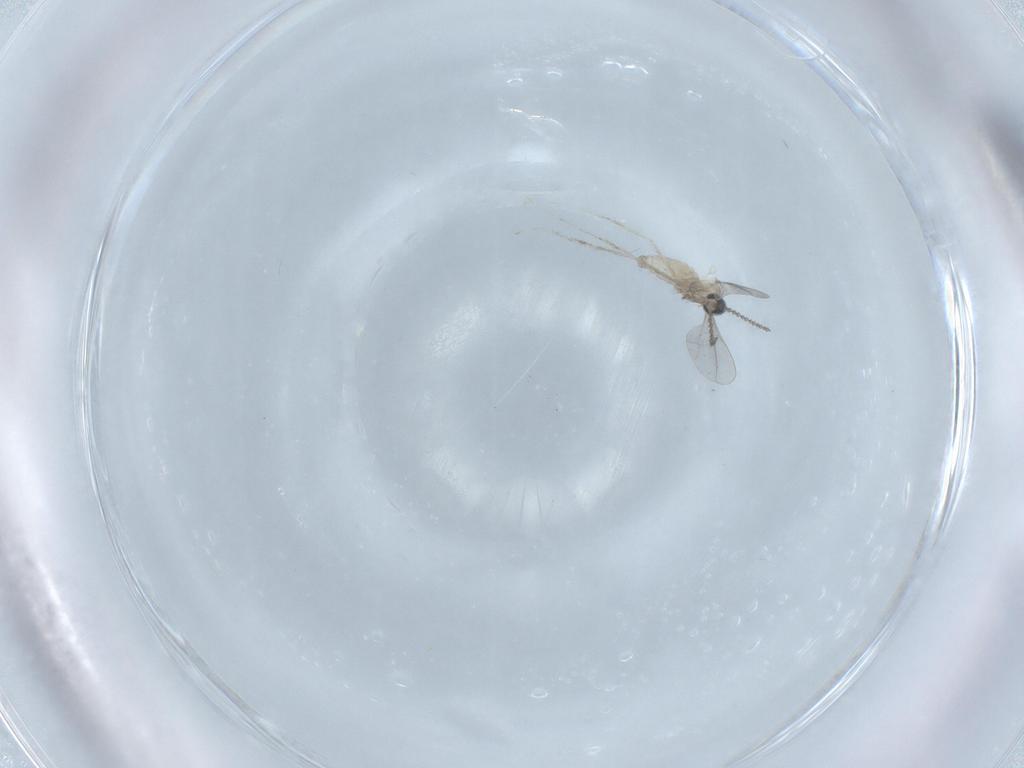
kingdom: Animalia
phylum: Arthropoda
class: Insecta
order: Diptera
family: Cecidomyiidae
